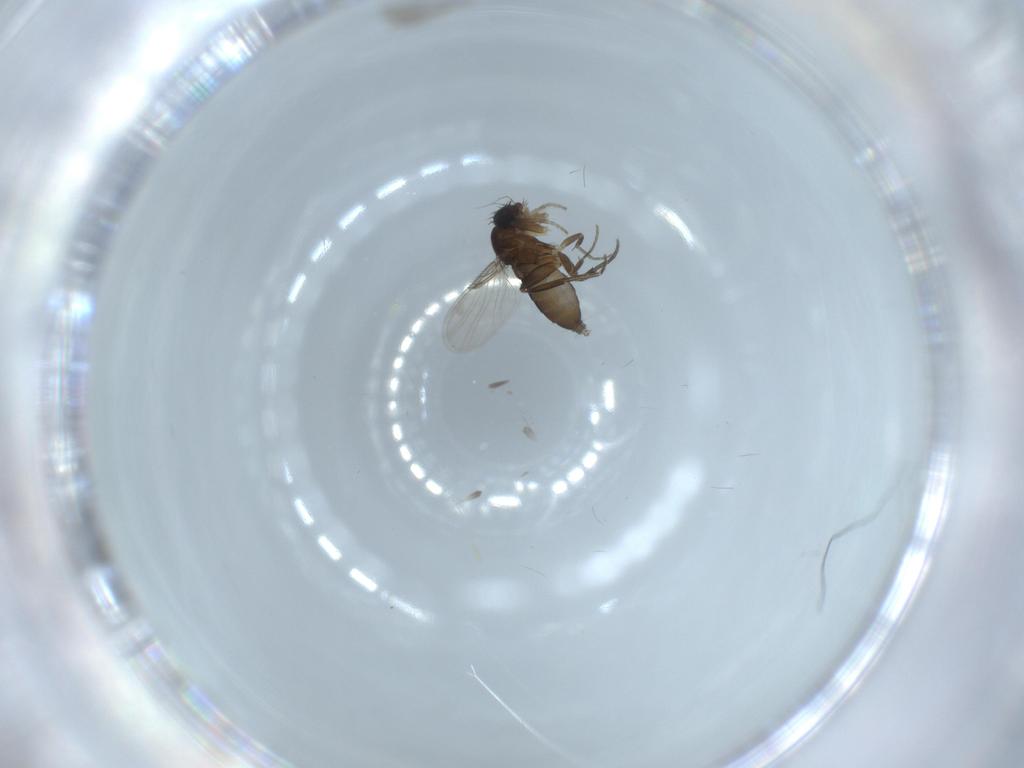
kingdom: Animalia
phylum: Arthropoda
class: Insecta
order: Diptera
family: Phoridae
